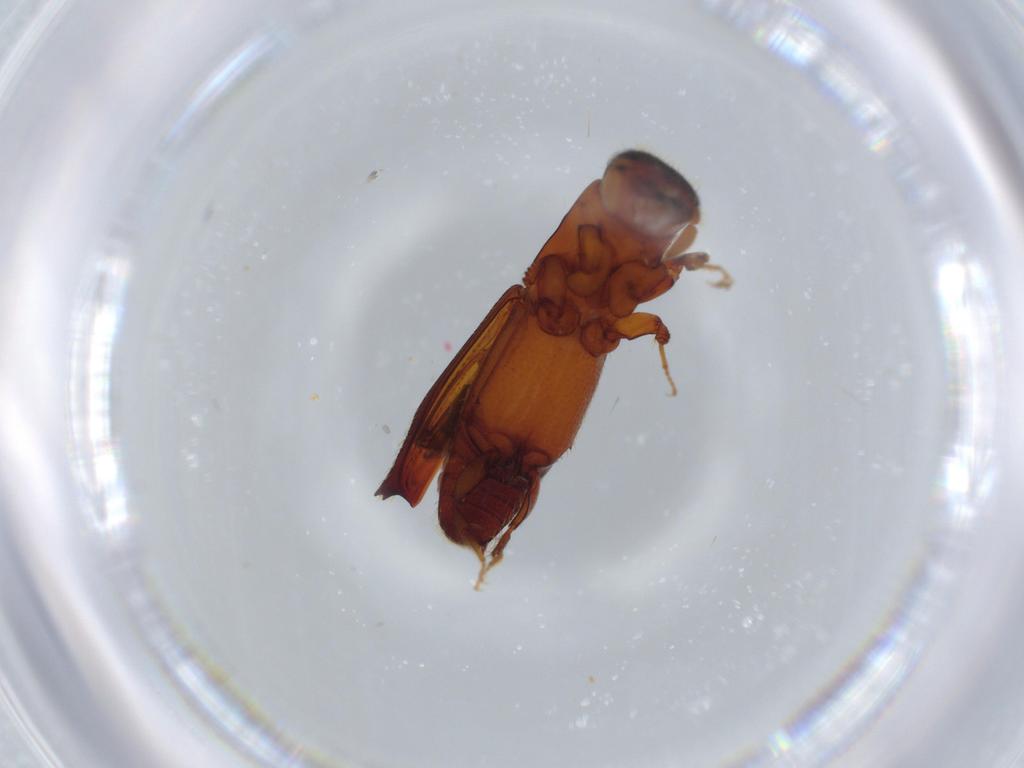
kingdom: Animalia
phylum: Arthropoda
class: Insecta
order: Coleoptera
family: Curculionidae
